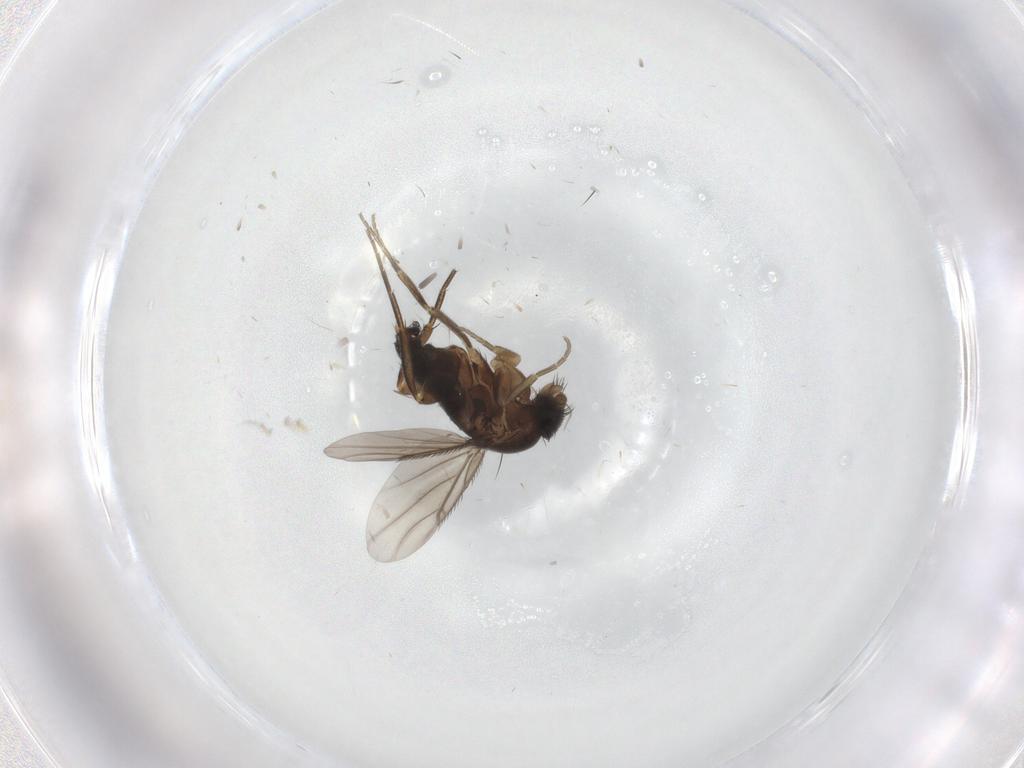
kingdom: Animalia
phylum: Arthropoda
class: Insecta
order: Diptera
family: Phoridae
